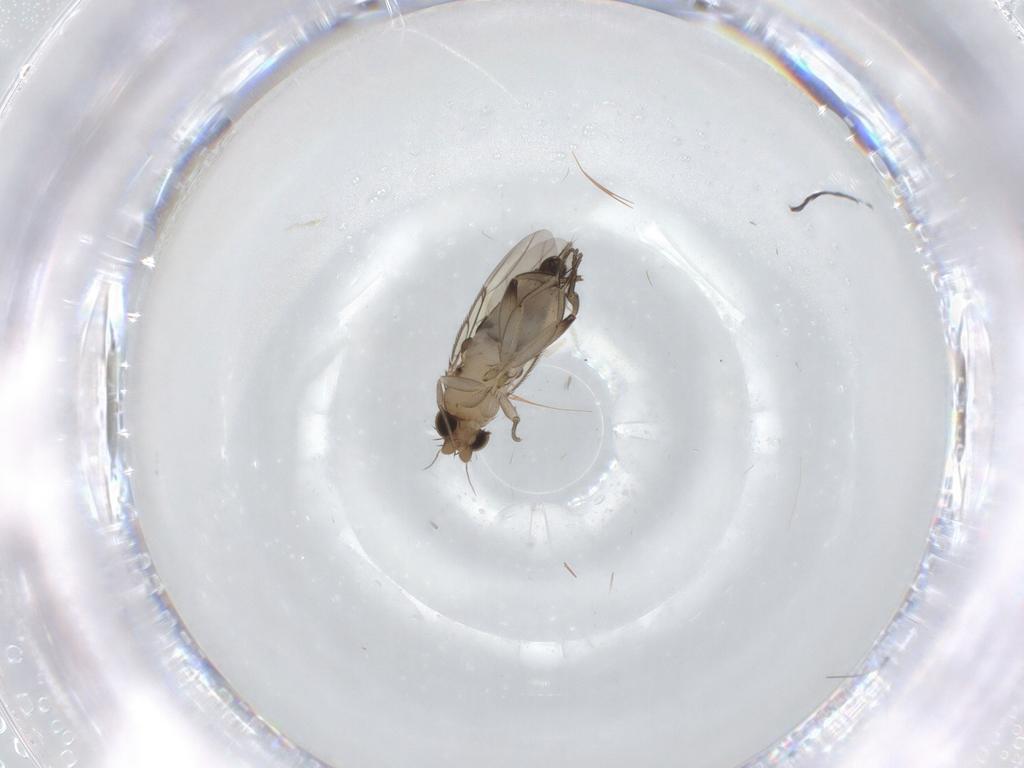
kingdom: Animalia
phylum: Arthropoda
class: Insecta
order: Diptera
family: Phoridae
